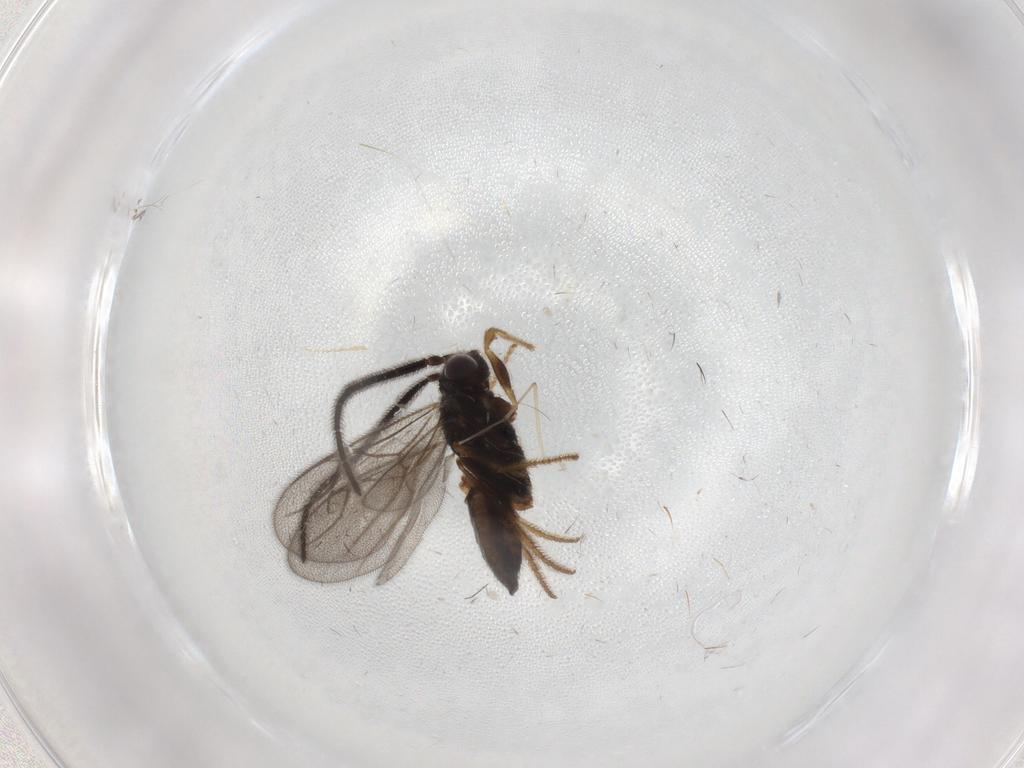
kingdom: Animalia
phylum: Arthropoda
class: Insecta
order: Hymenoptera
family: Dryinidae
